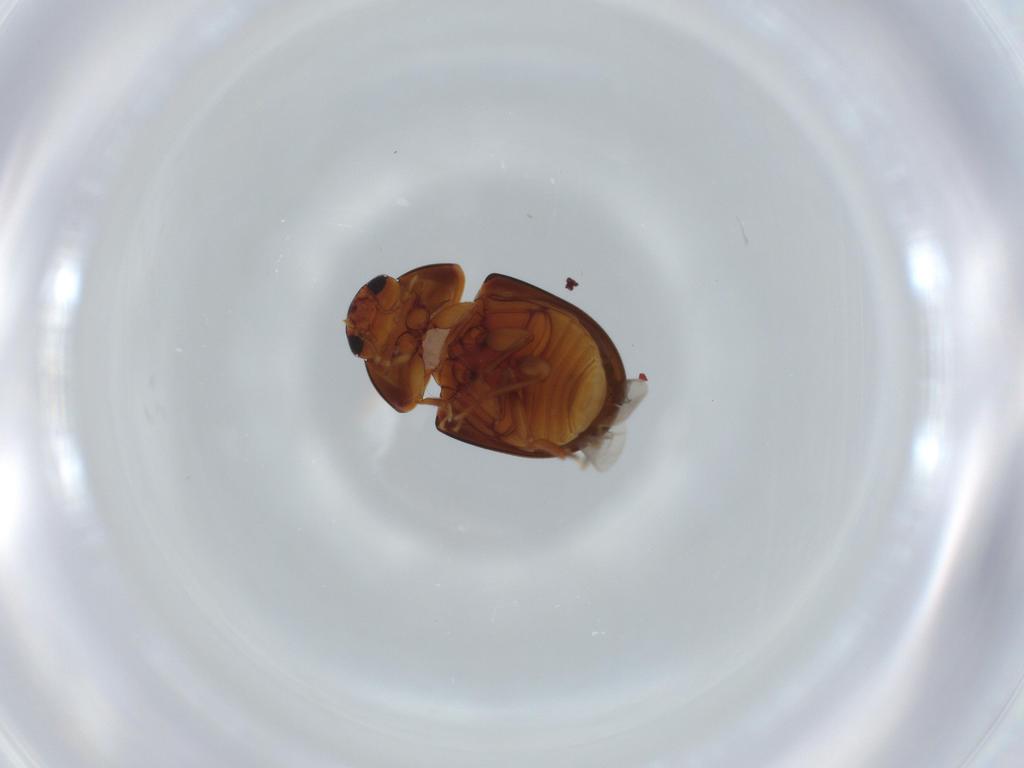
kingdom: Animalia
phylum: Arthropoda
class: Insecta
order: Coleoptera
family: Phalacridae
